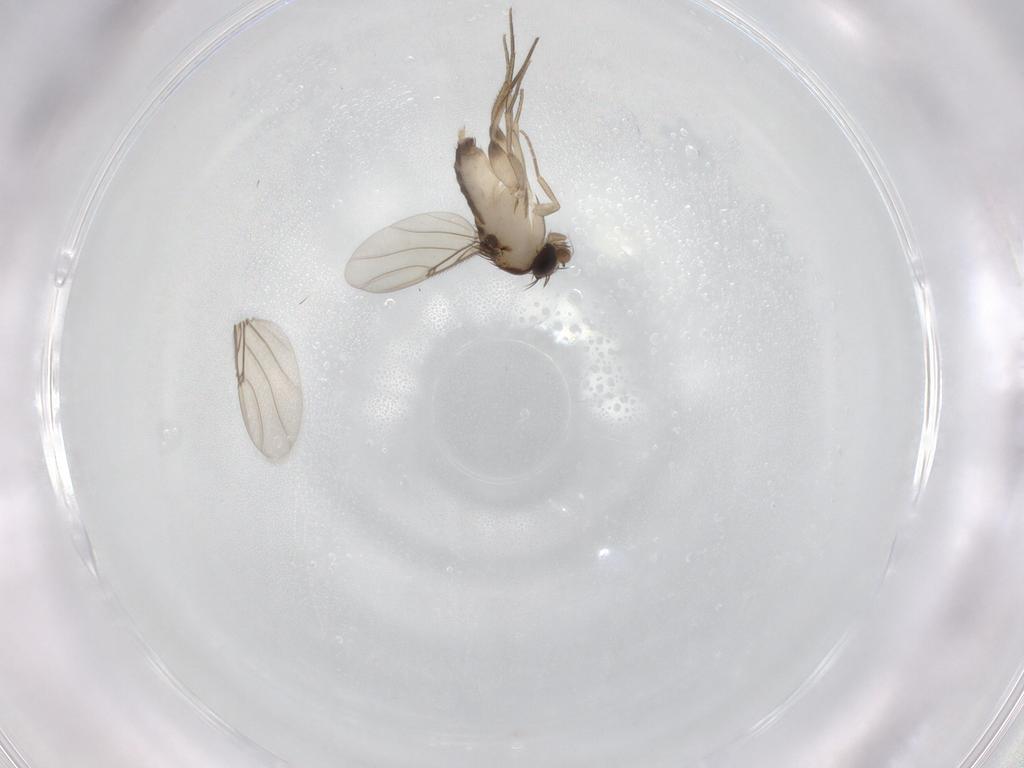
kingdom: Animalia
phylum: Arthropoda
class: Insecta
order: Diptera
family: Phoridae
